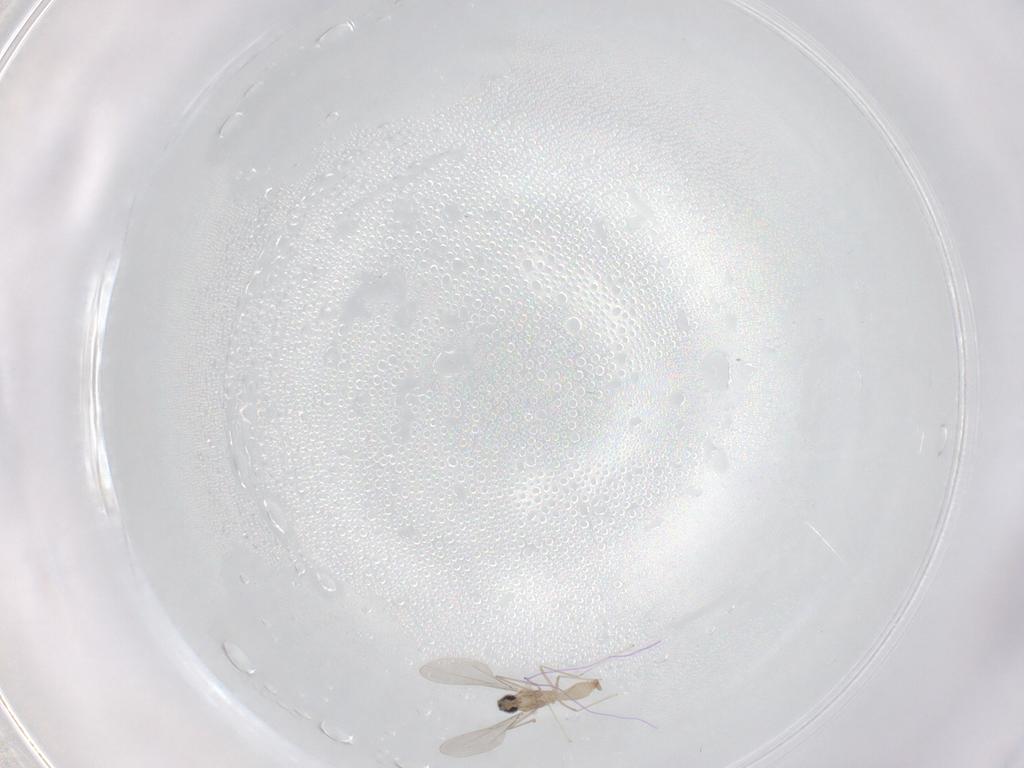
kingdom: Animalia
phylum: Arthropoda
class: Insecta
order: Diptera
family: Cecidomyiidae
